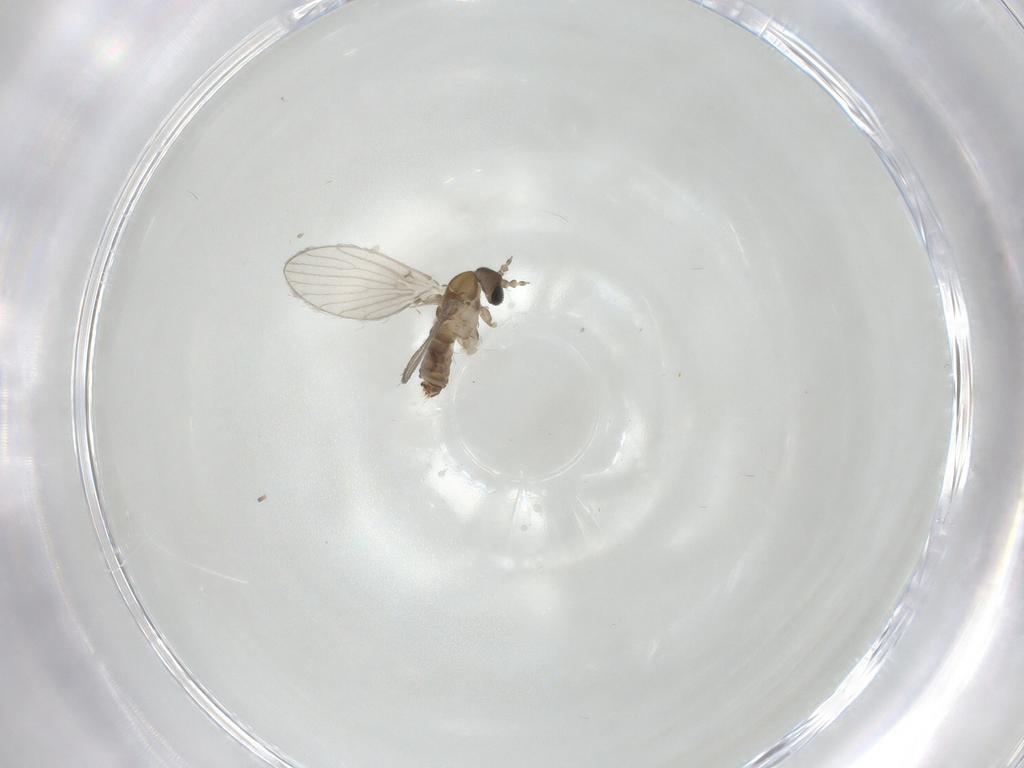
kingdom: Animalia
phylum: Arthropoda
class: Insecta
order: Diptera
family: Psychodidae
